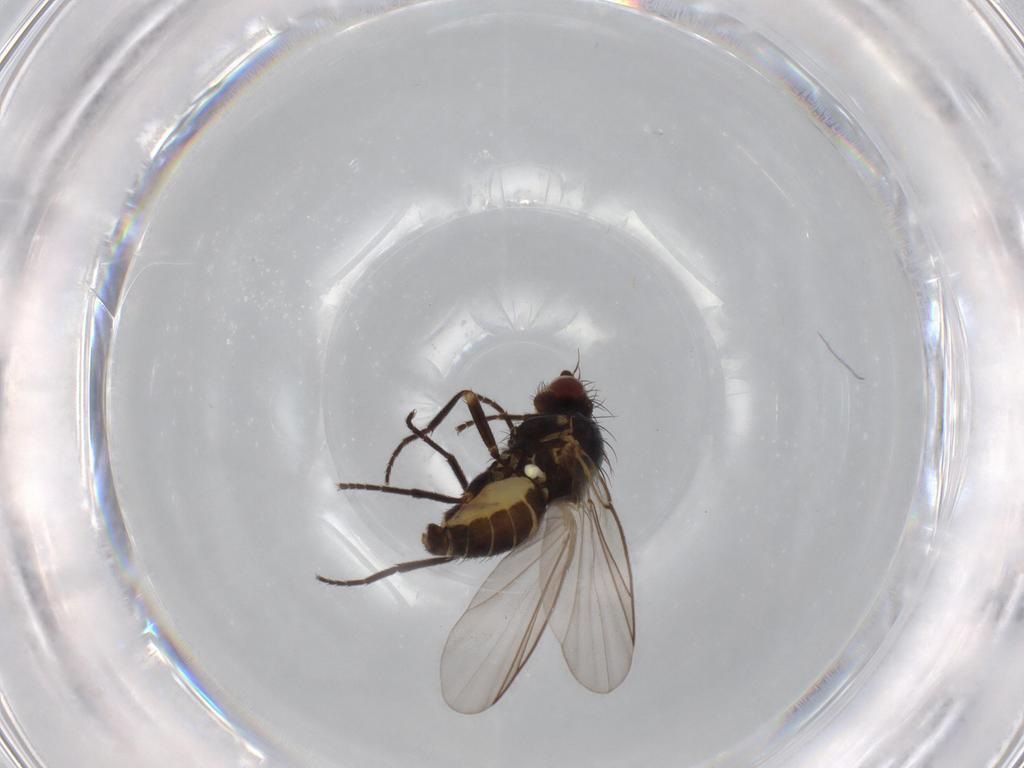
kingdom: Animalia
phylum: Arthropoda
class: Insecta
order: Diptera
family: Agromyzidae
